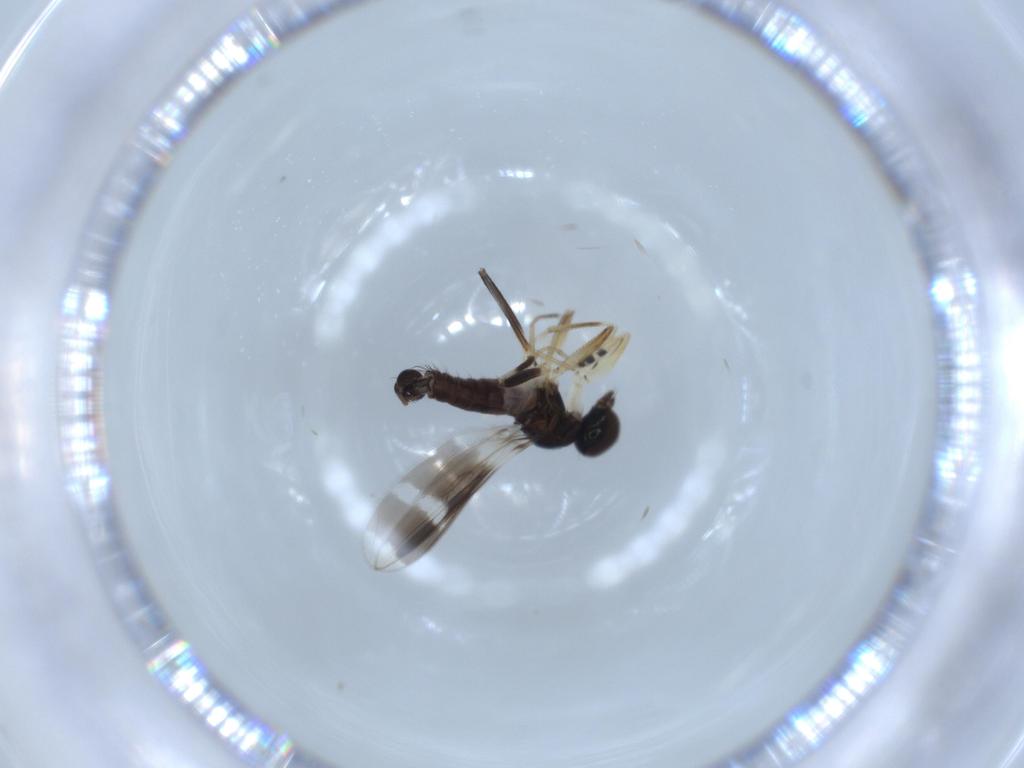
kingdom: Animalia
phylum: Arthropoda
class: Insecta
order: Diptera
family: Hybotidae
